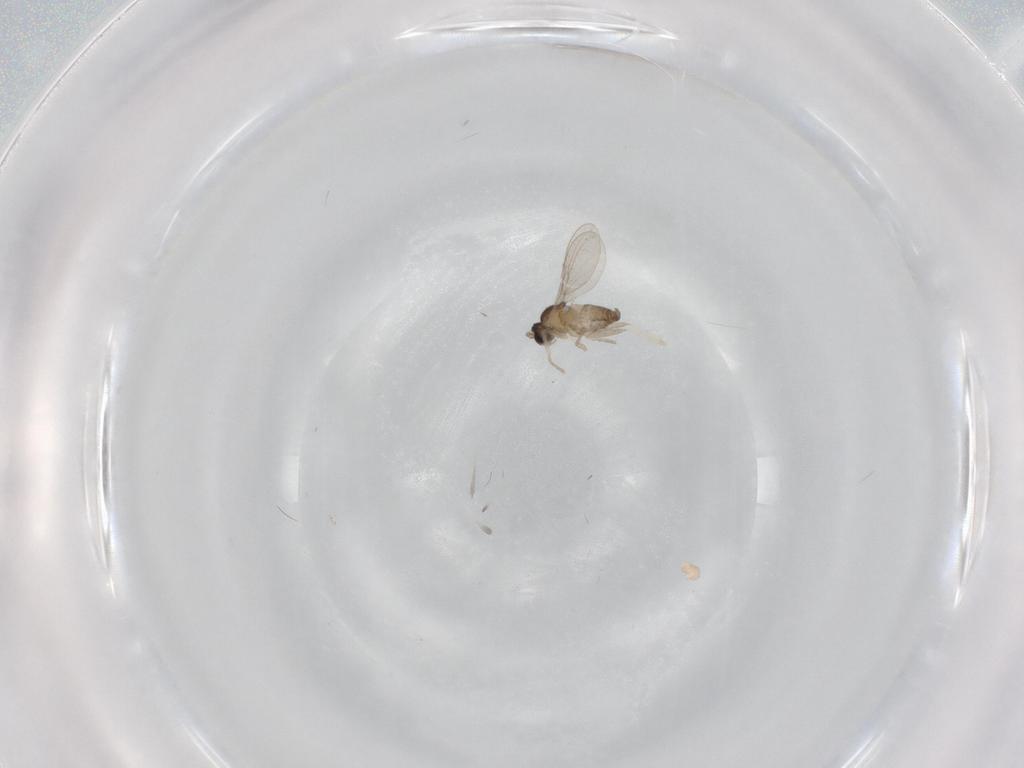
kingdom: Animalia
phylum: Arthropoda
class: Insecta
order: Diptera
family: Cecidomyiidae
